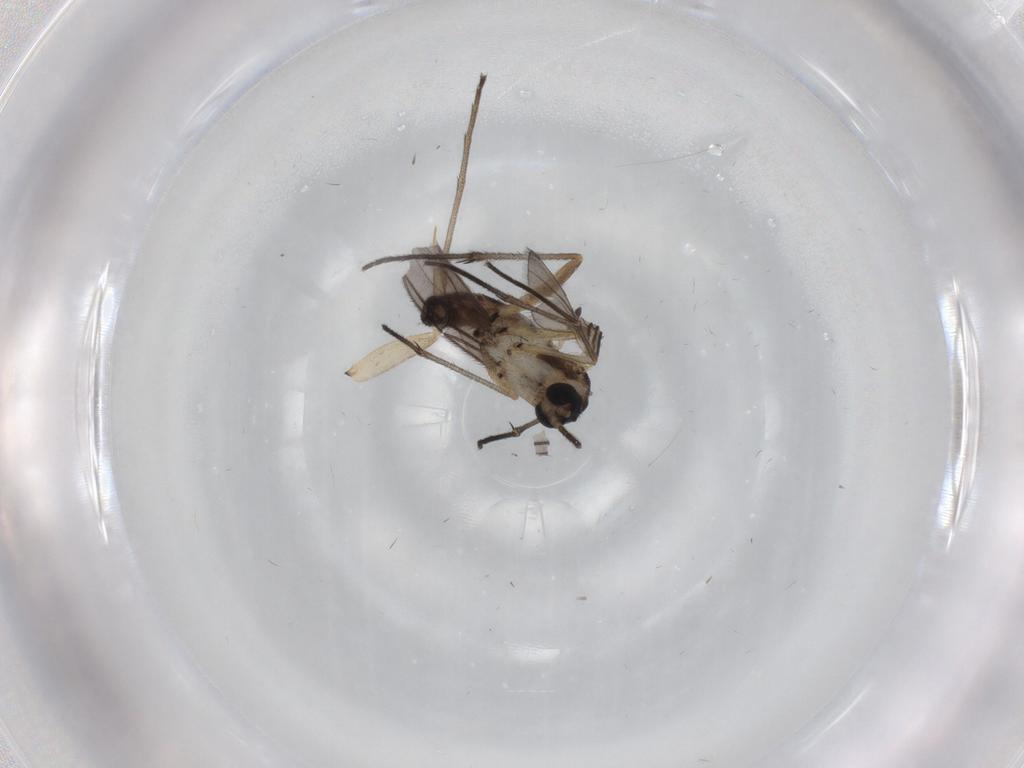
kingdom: Animalia
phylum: Arthropoda
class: Insecta
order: Diptera
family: Mycetophilidae
